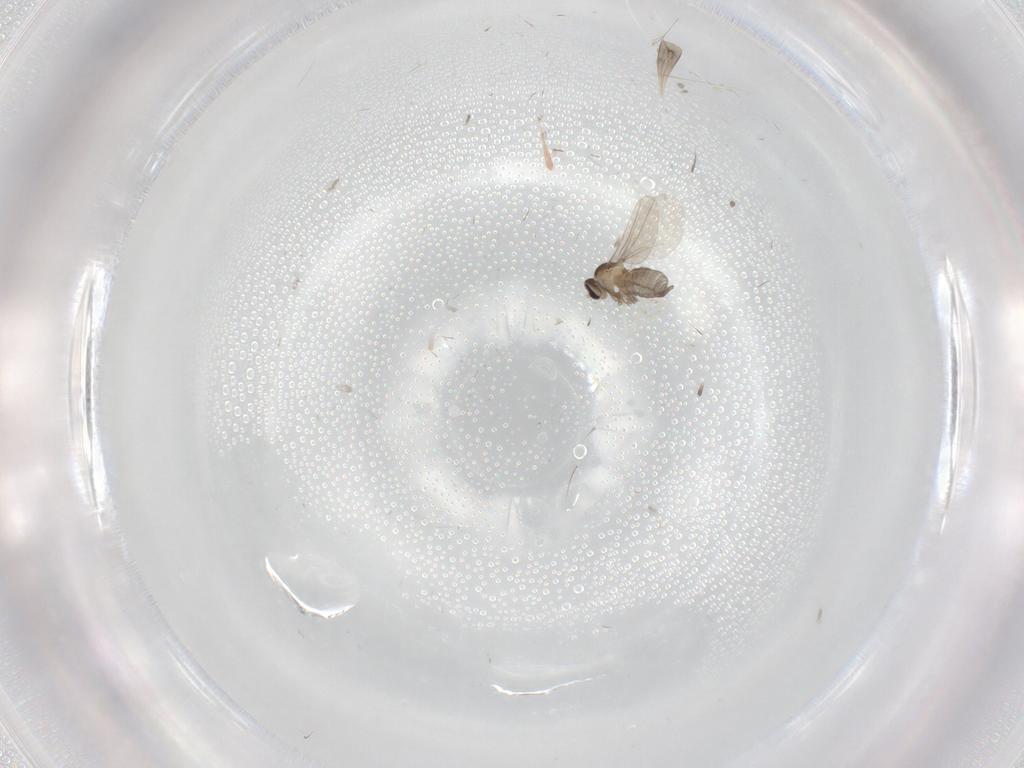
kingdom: Animalia
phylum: Arthropoda
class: Insecta
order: Diptera
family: Cecidomyiidae
